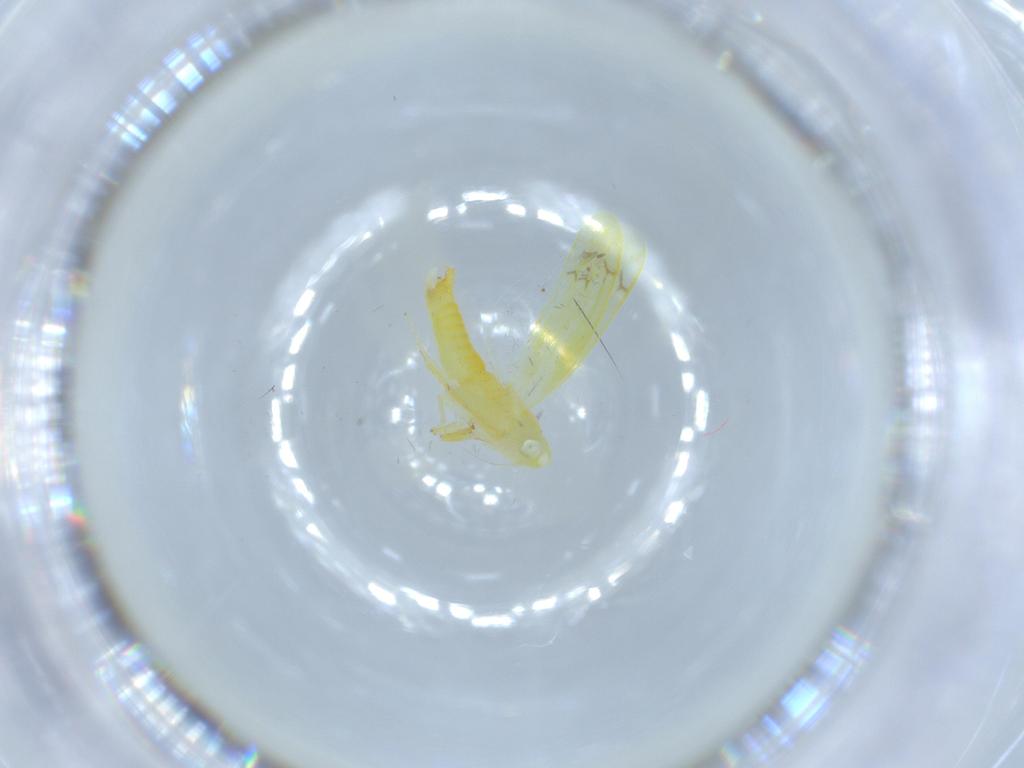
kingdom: Animalia
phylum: Arthropoda
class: Insecta
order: Hemiptera
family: Cicadellidae
